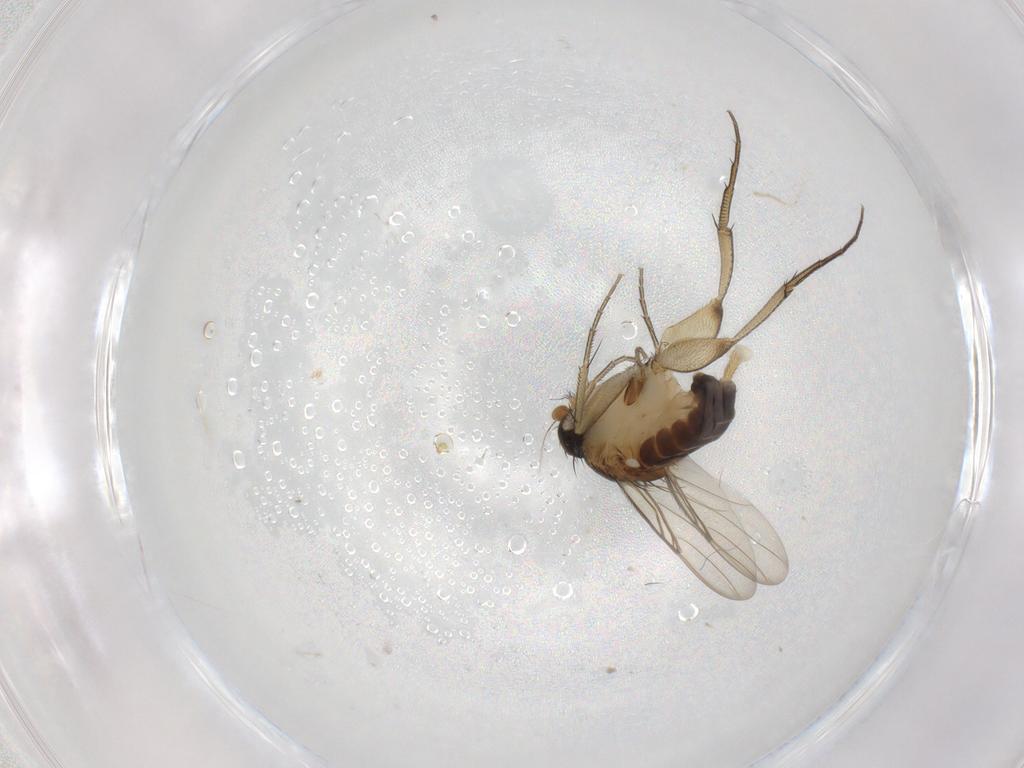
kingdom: Animalia
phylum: Arthropoda
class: Insecta
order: Diptera
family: Phoridae
